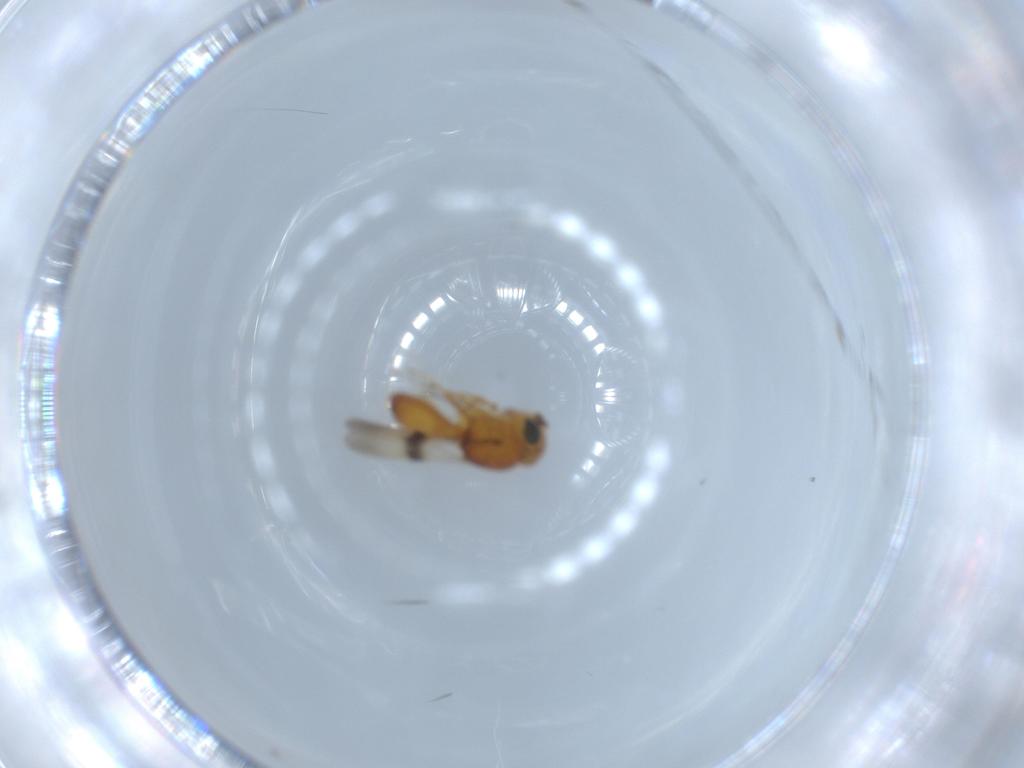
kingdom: Animalia
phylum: Arthropoda
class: Insecta
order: Hymenoptera
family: Scelionidae
